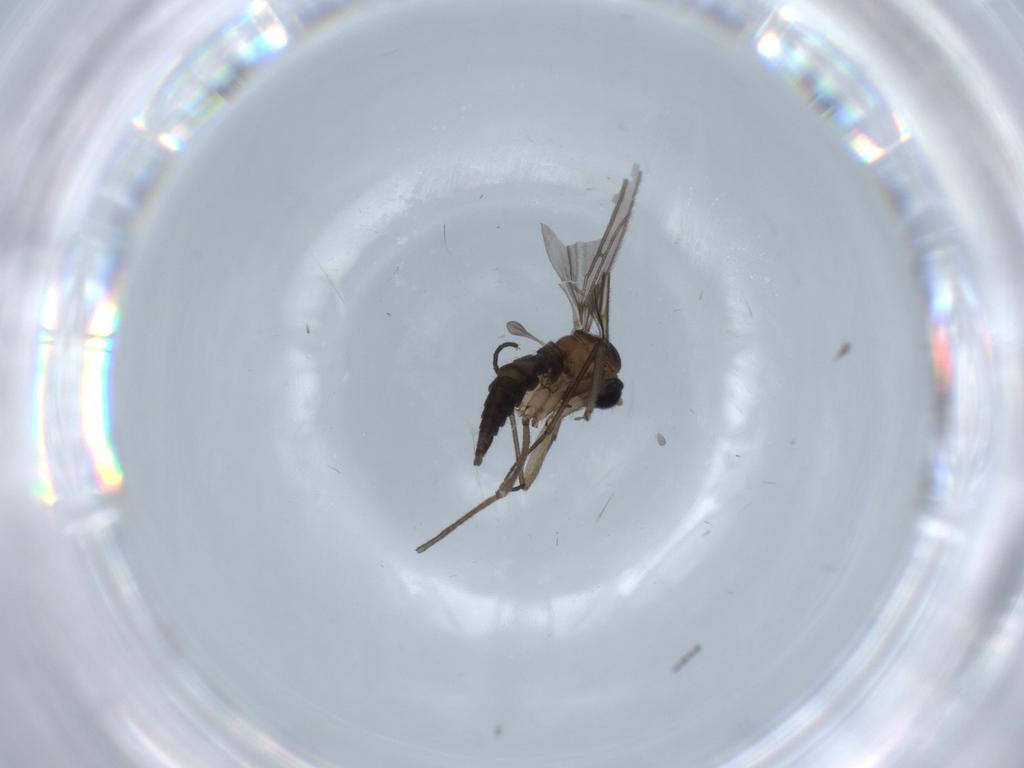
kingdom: Animalia
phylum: Arthropoda
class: Insecta
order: Diptera
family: Sciaridae
